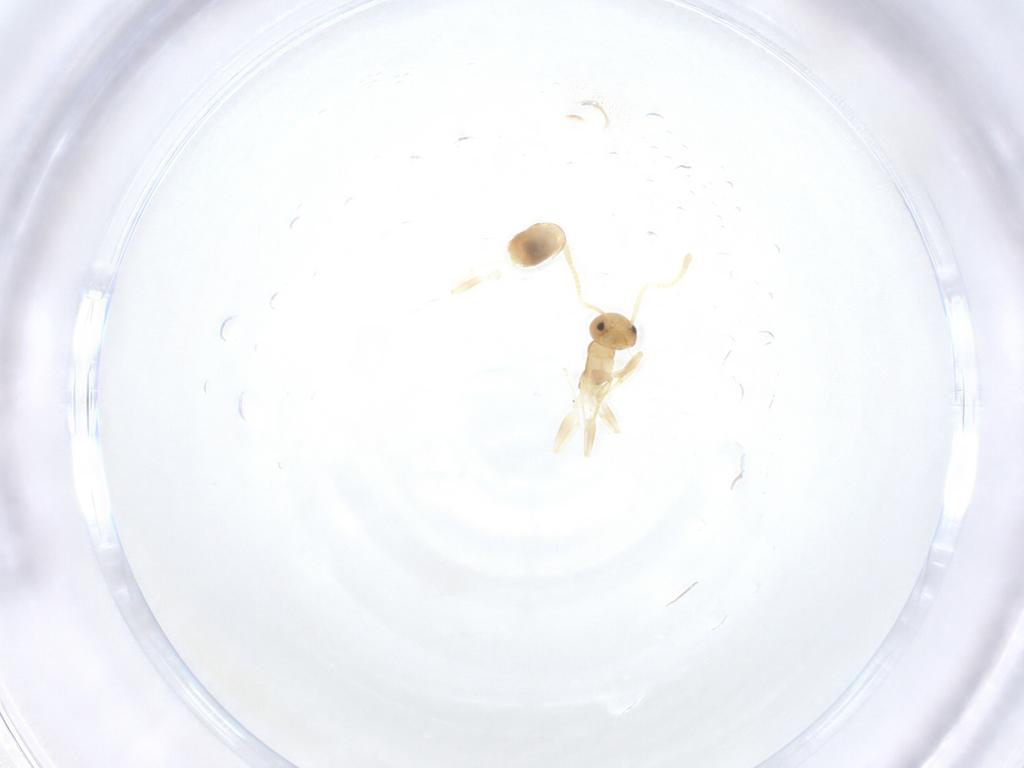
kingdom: Animalia
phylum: Arthropoda
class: Insecta
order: Hymenoptera
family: Formicidae
